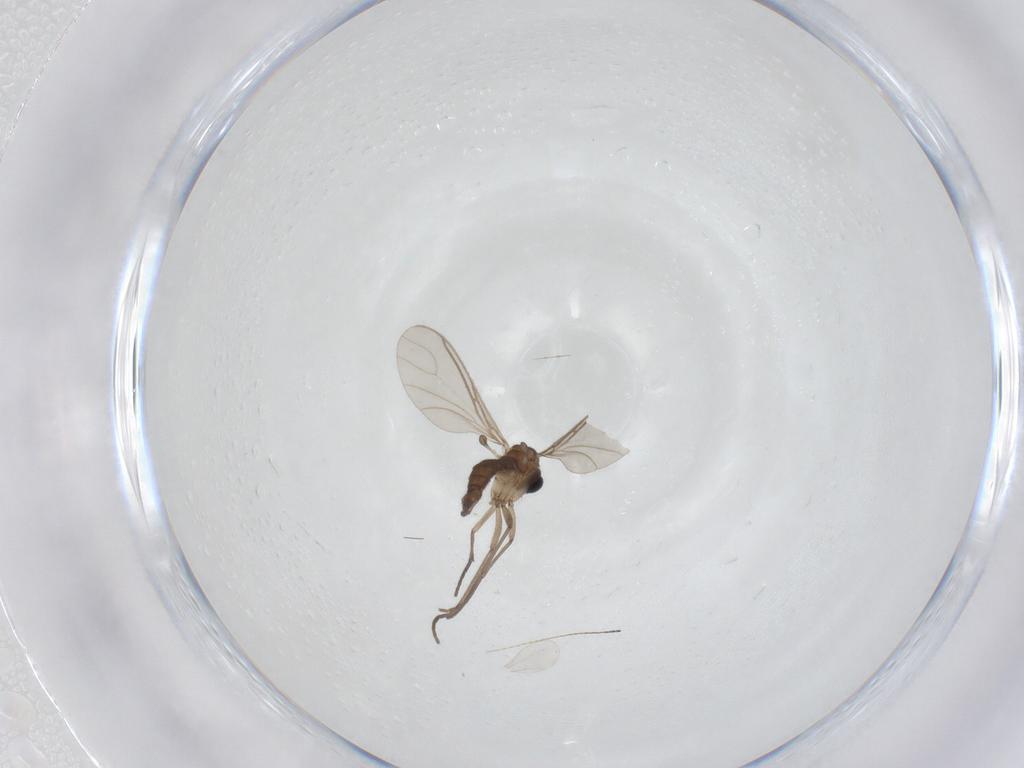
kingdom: Animalia
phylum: Arthropoda
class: Insecta
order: Diptera
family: Sciaridae
